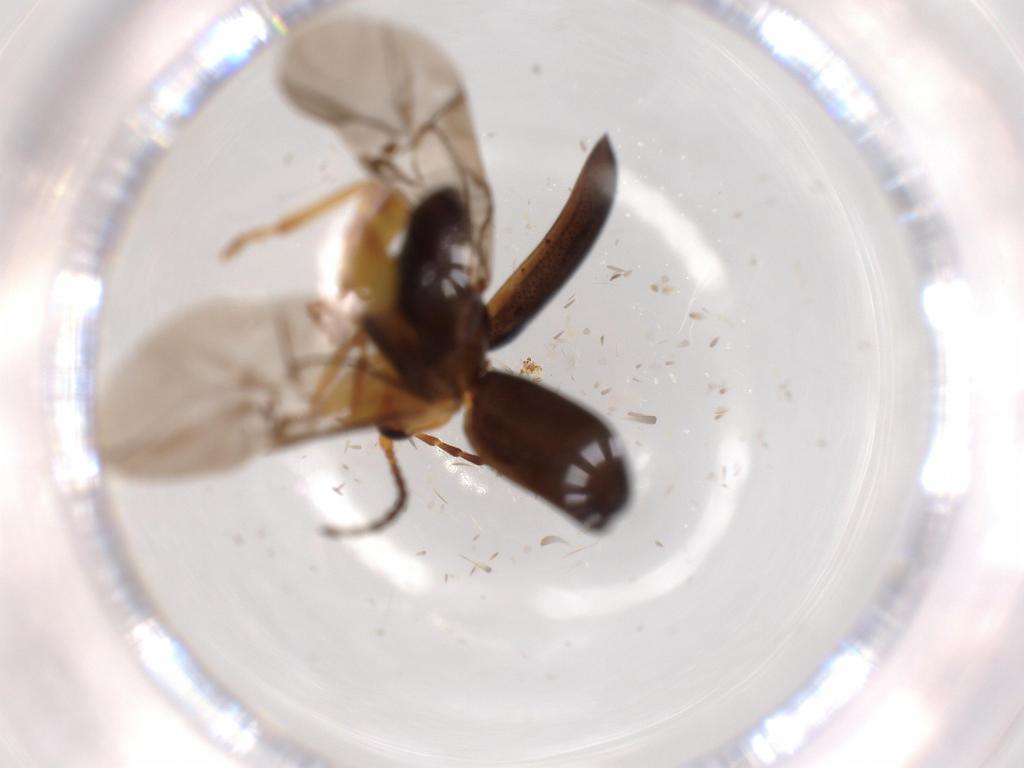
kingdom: Animalia
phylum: Arthropoda
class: Insecta
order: Coleoptera
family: Chrysomelidae
